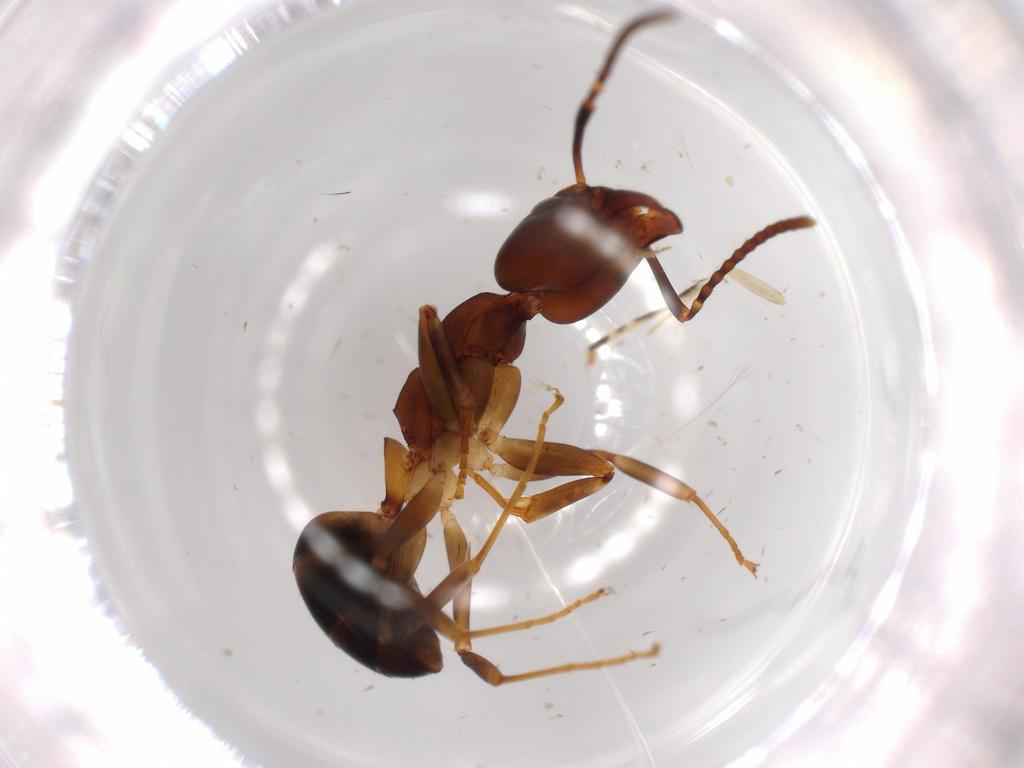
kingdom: Animalia
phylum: Arthropoda
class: Insecta
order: Hymenoptera
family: Formicidae
